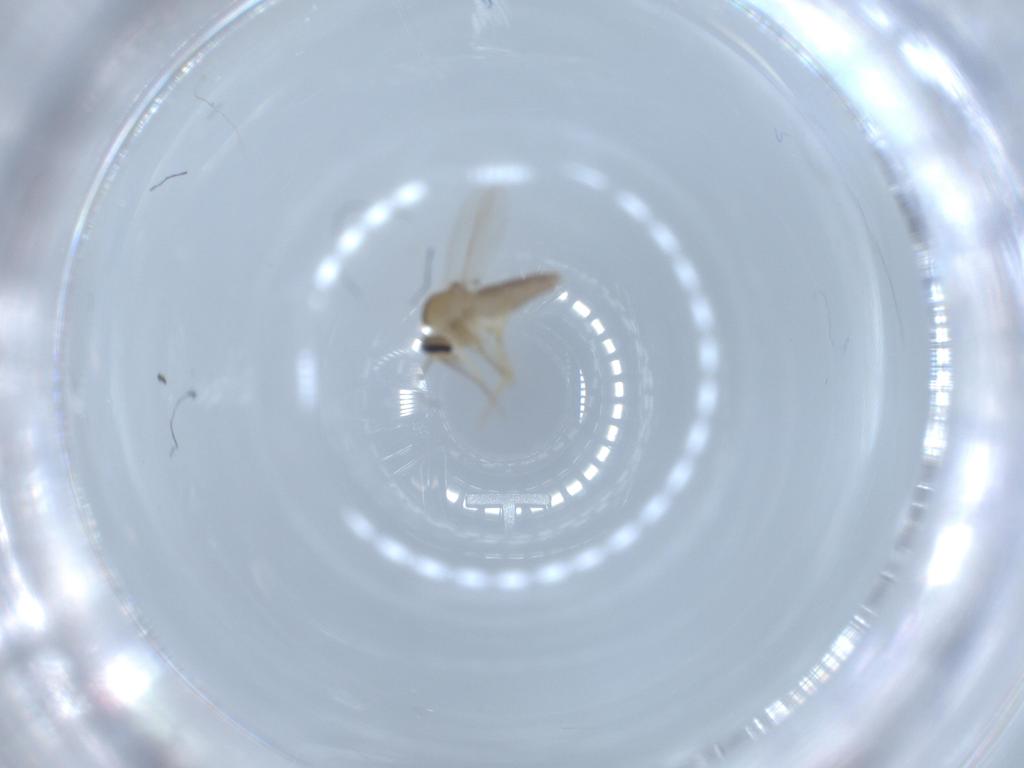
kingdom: Animalia
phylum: Arthropoda
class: Insecta
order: Diptera
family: Ceratopogonidae
